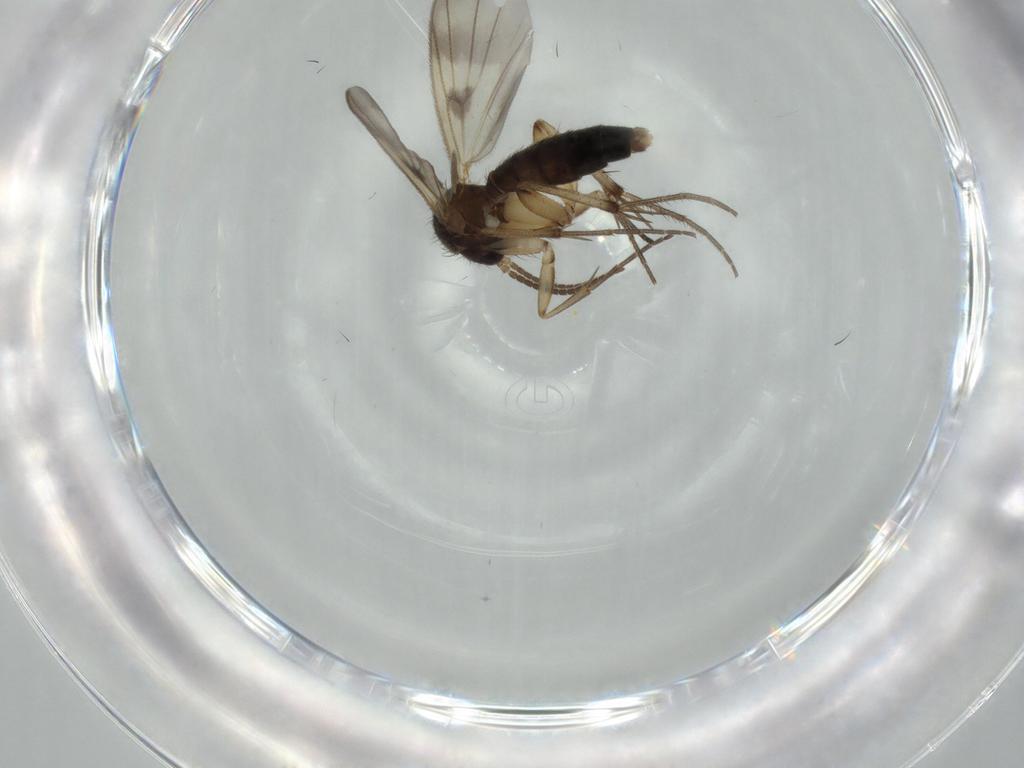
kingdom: Animalia
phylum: Arthropoda
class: Insecta
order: Diptera
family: Mycetophilidae
